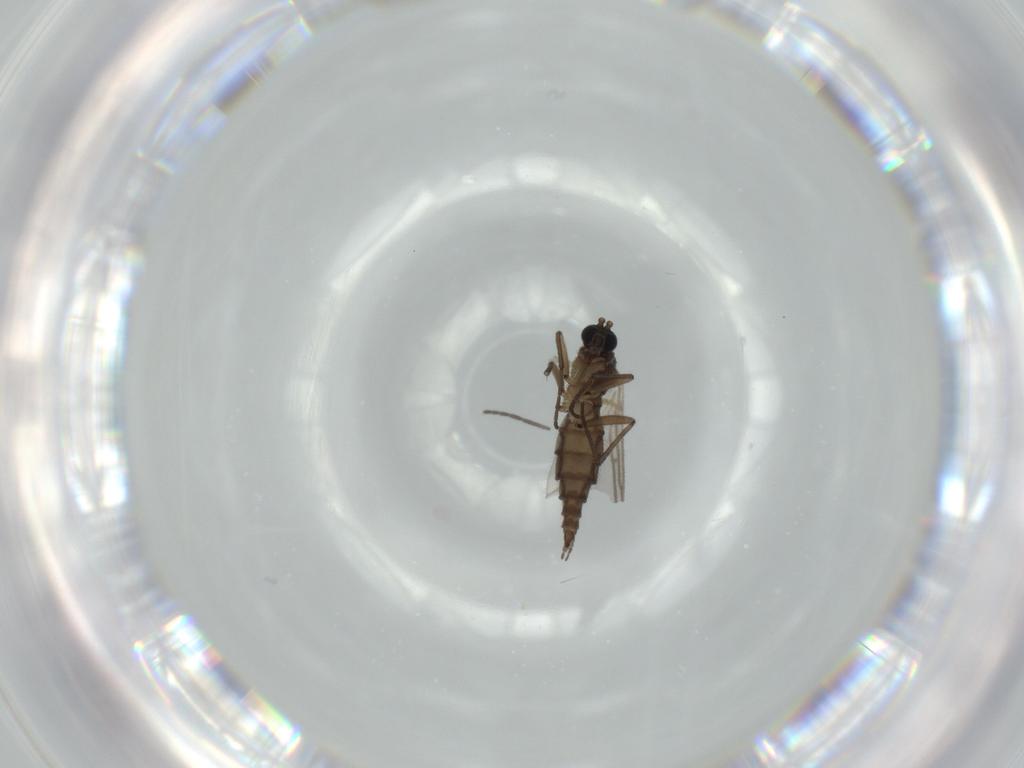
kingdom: Animalia
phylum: Arthropoda
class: Insecta
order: Diptera
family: Sciaridae
